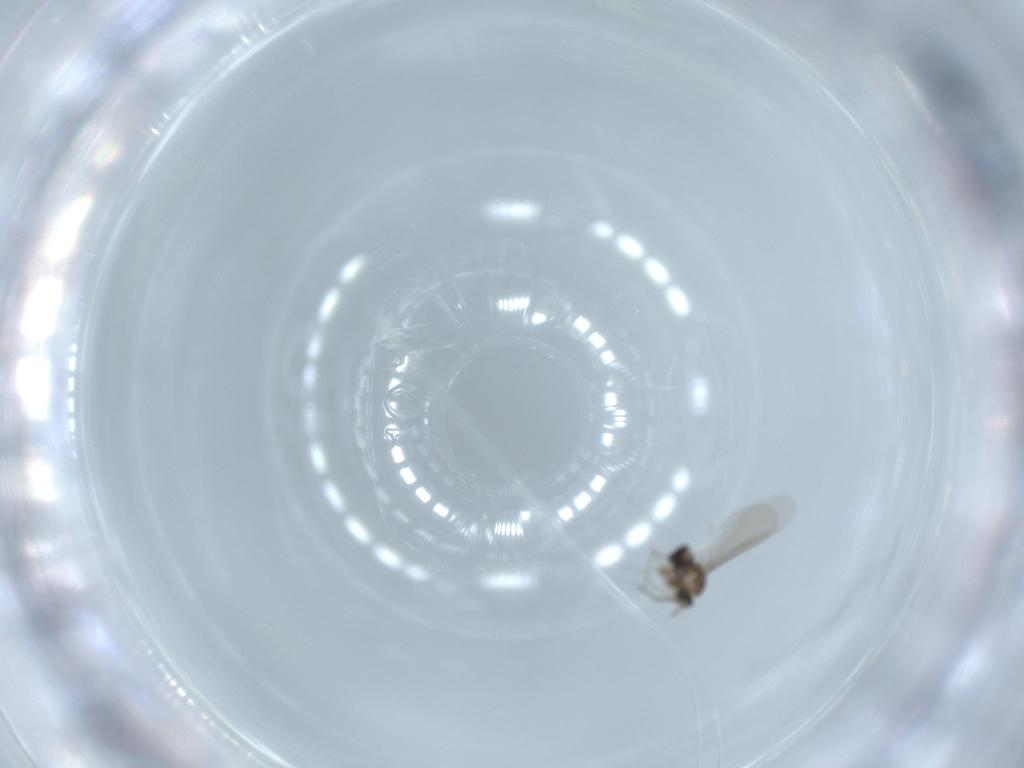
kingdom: Animalia
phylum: Arthropoda
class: Insecta
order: Diptera
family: Cecidomyiidae
